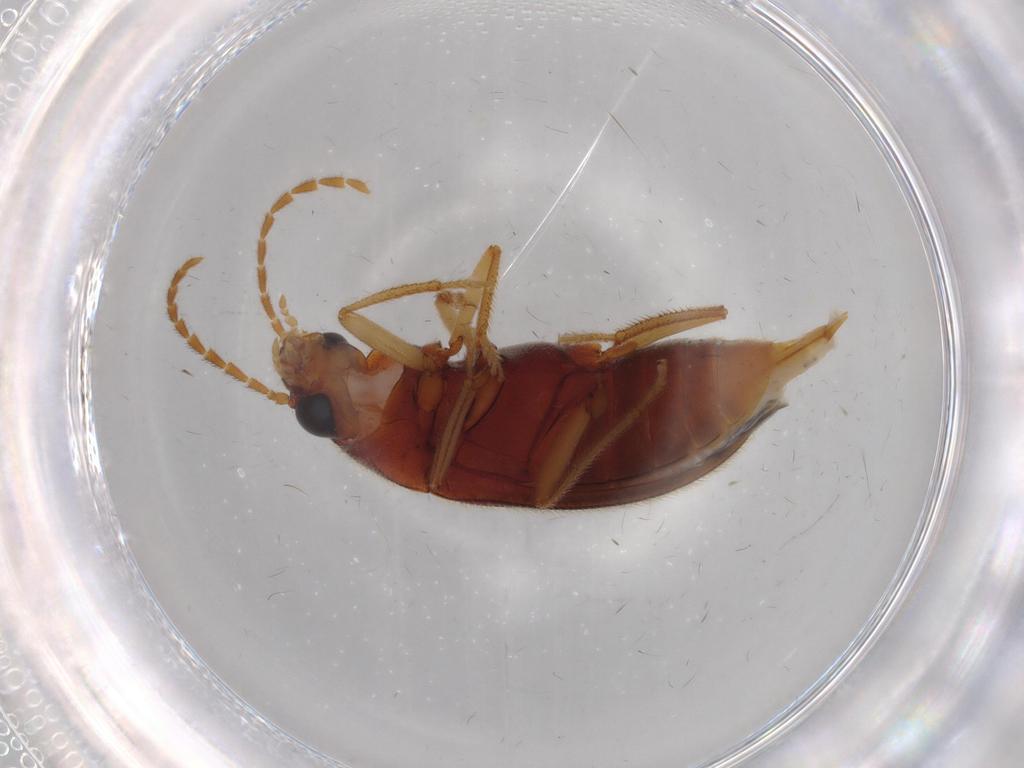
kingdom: Animalia
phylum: Arthropoda
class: Insecta
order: Coleoptera
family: Ptilodactylidae
